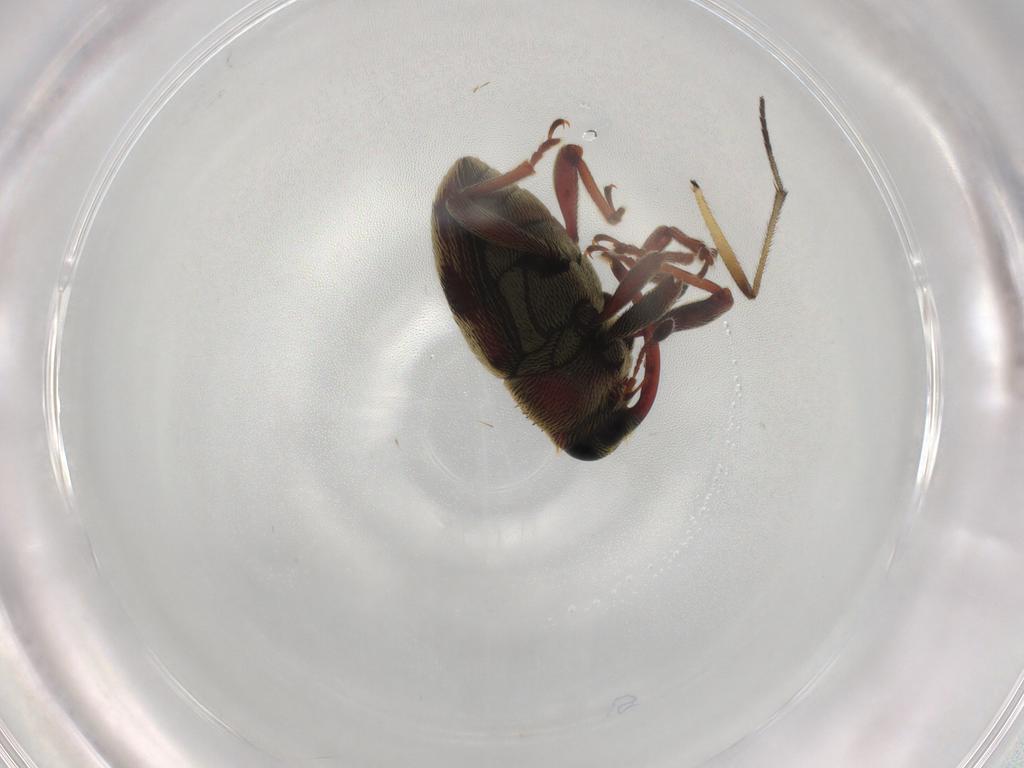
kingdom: Animalia
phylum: Arthropoda
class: Insecta
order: Coleoptera
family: Curculionidae
